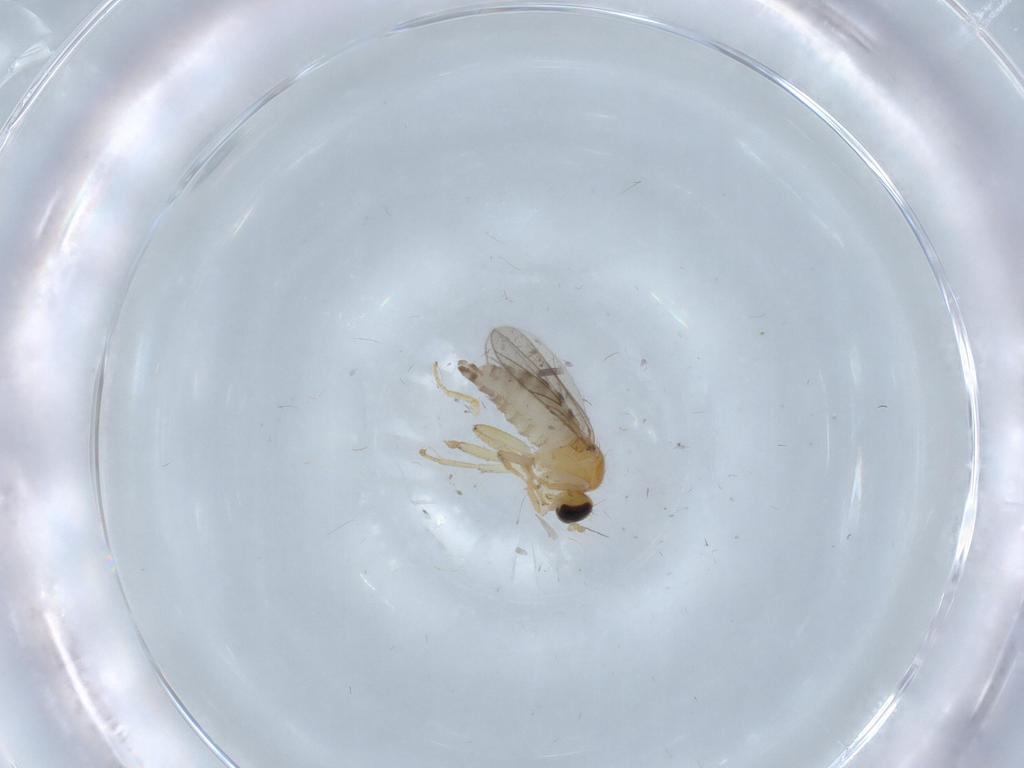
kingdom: Animalia
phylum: Arthropoda
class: Insecta
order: Diptera
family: Cecidomyiidae
